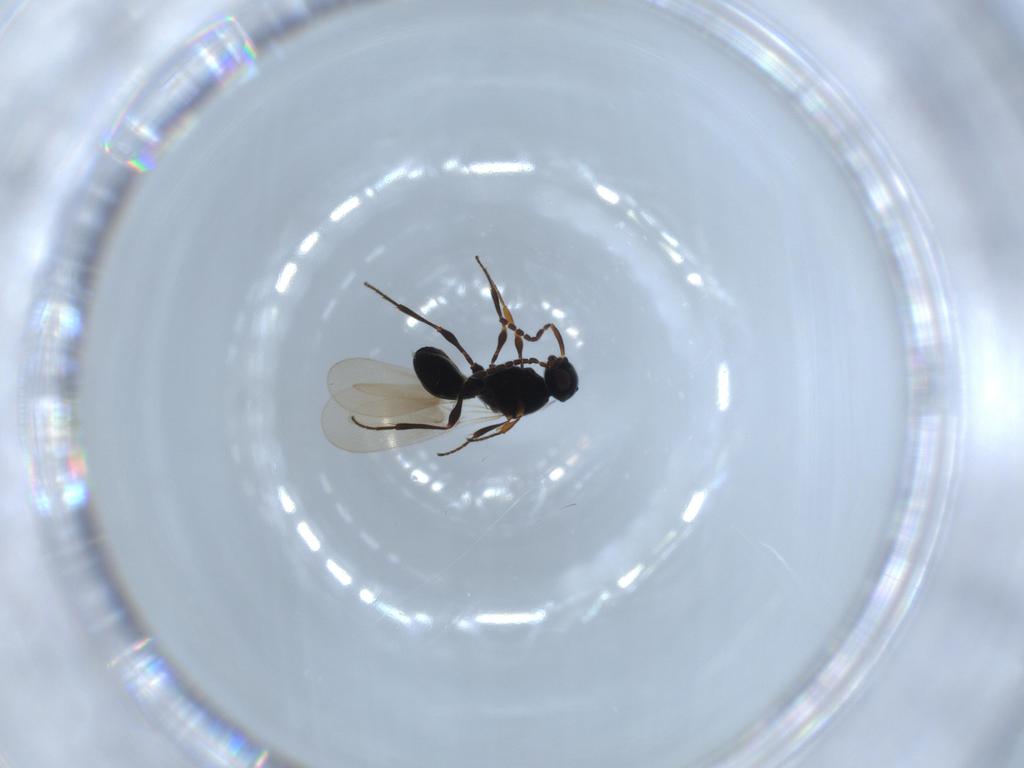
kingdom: Animalia
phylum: Arthropoda
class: Insecta
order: Hymenoptera
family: Platygastridae
